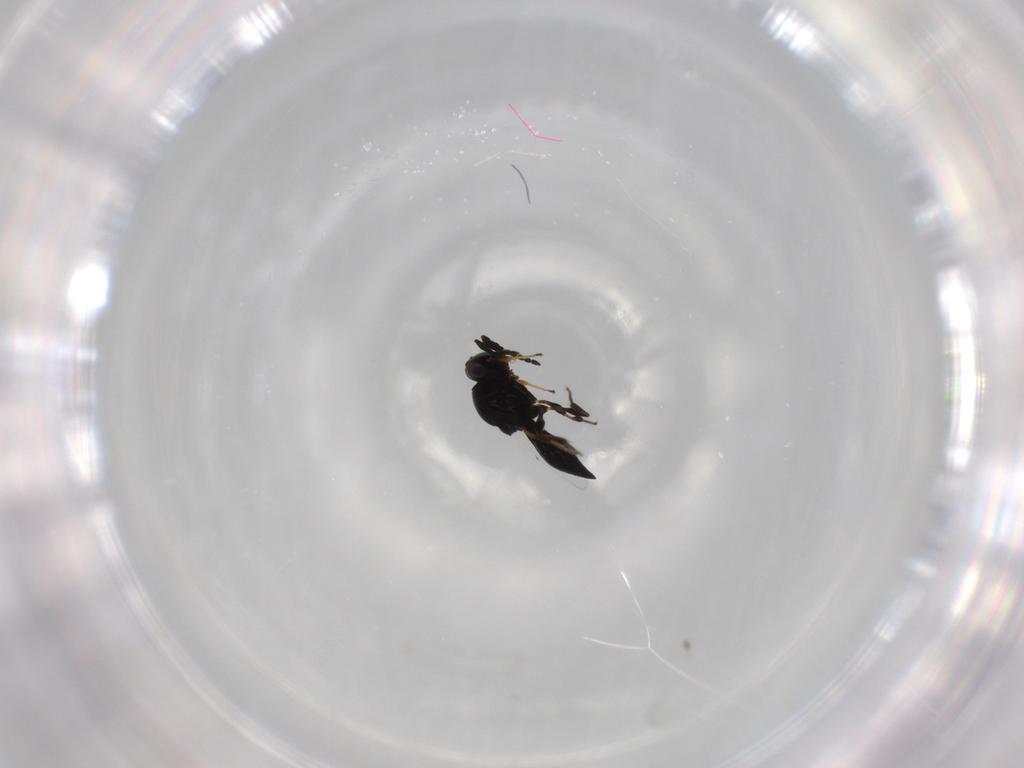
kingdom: Animalia
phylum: Arthropoda
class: Insecta
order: Hymenoptera
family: Platygastridae
